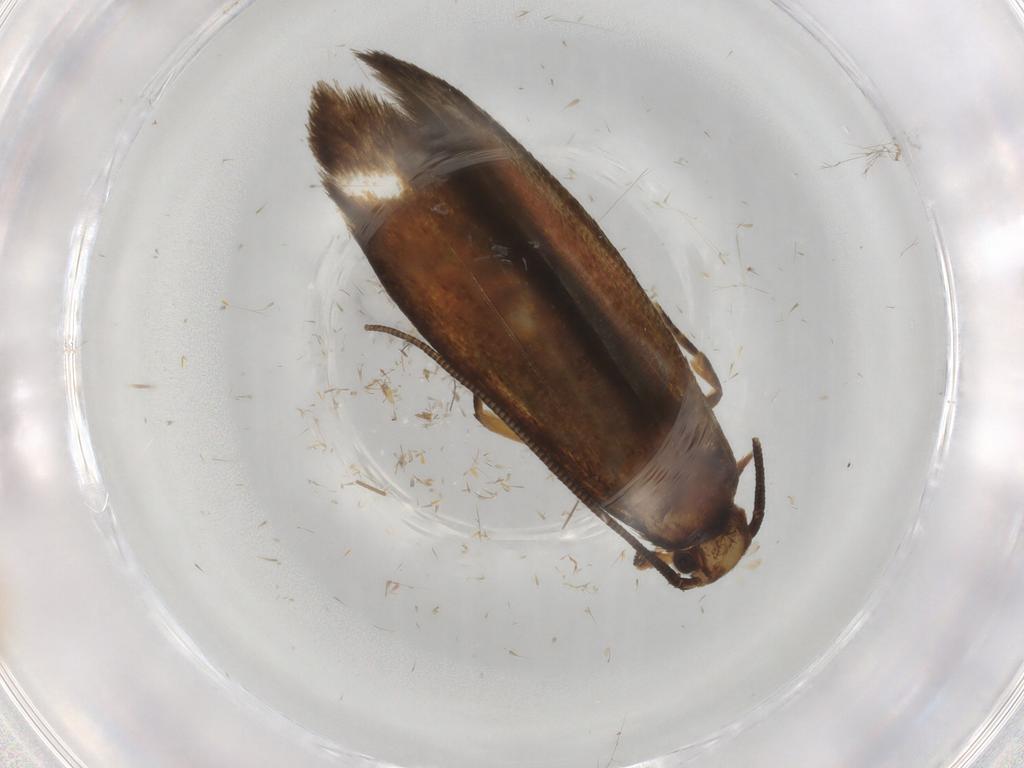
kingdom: Animalia
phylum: Arthropoda
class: Insecta
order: Lepidoptera
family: Tineidae
